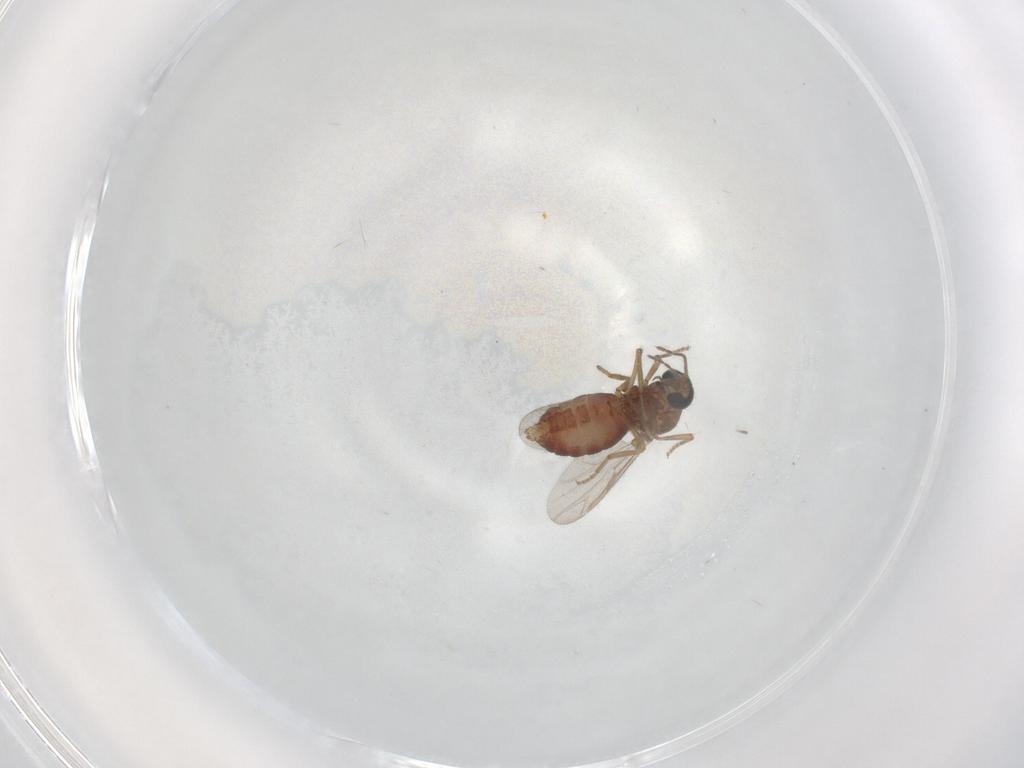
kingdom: Animalia
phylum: Arthropoda
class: Insecta
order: Diptera
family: Ceratopogonidae
